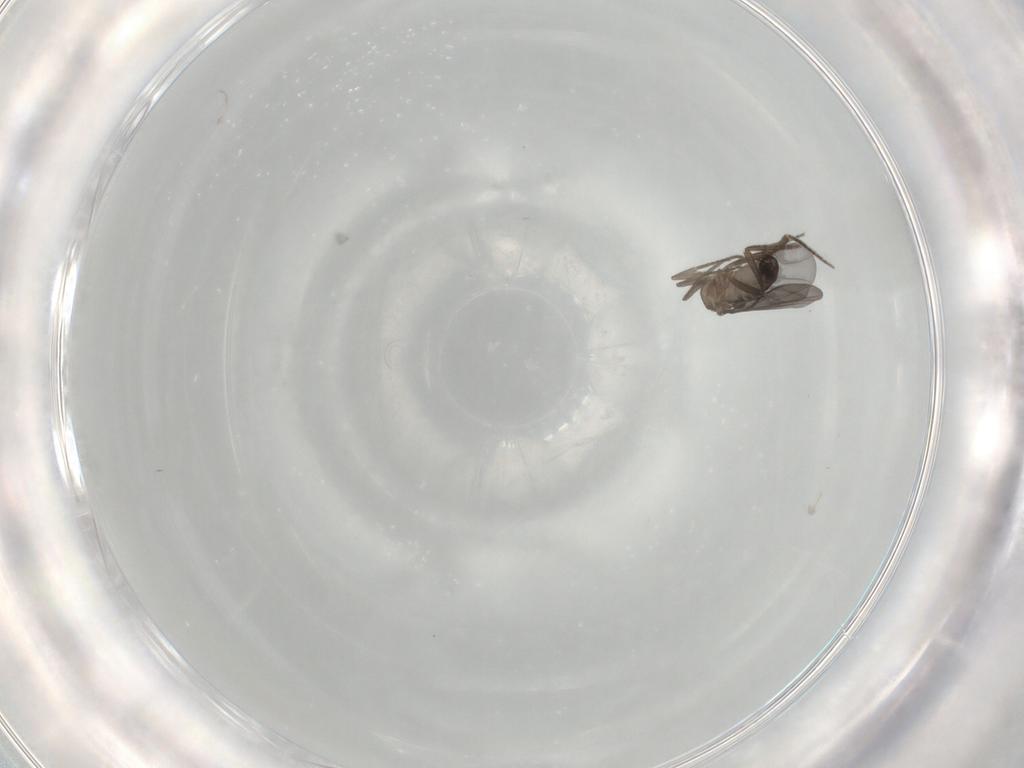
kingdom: Animalia
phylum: Arthropoda
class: Insecta
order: Diptera
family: Phoridae
